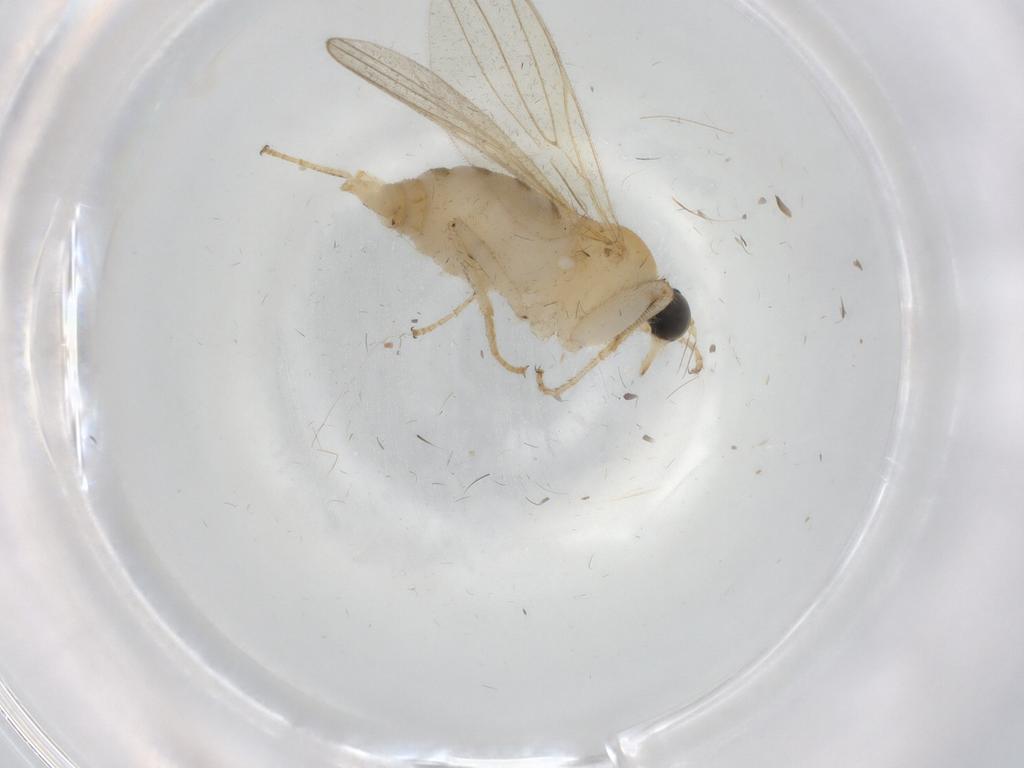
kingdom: Animalia
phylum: Arthropoda
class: Insecta
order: Diptera
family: Hybotidae
